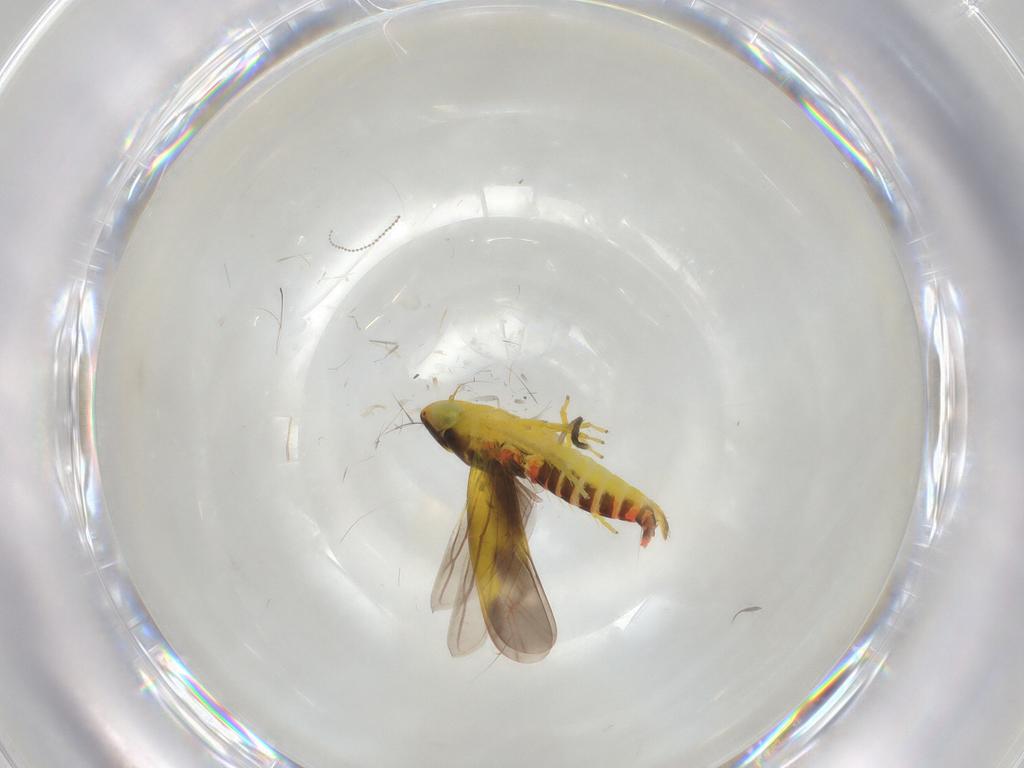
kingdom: Animalia
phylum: Arthropoda
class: Insecta
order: Hemiptera
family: Cicadellidae
